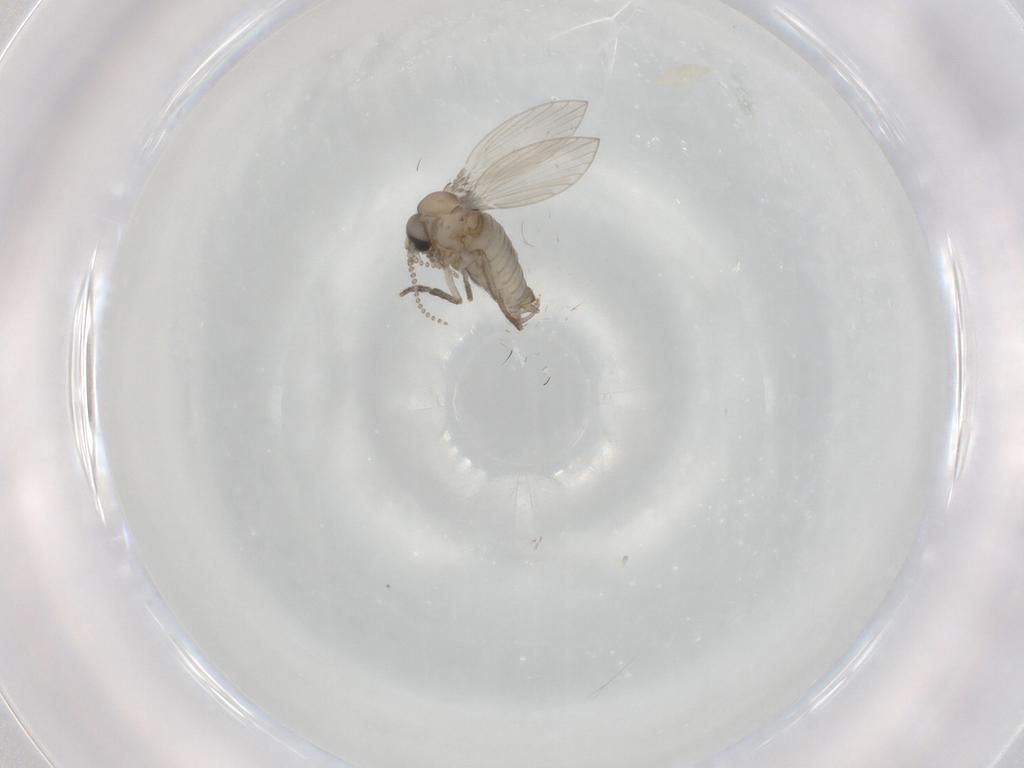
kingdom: Animalia
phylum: Arthropoda
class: Insecta
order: Diptera
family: Psychodidae
